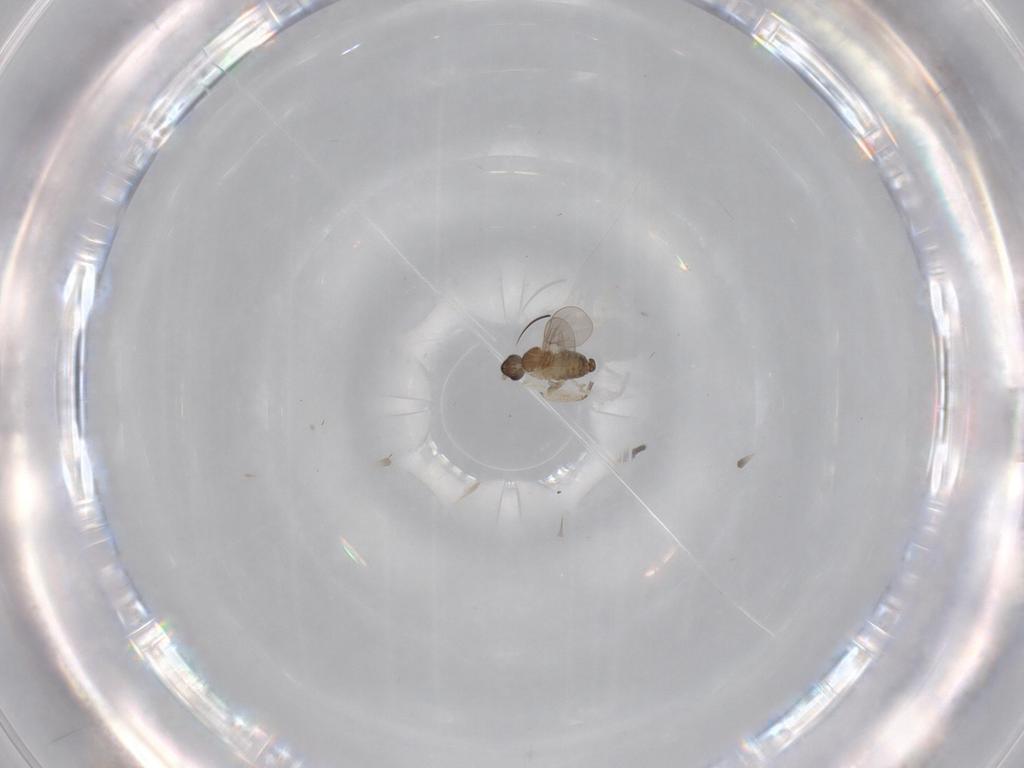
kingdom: Animalia
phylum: Arthropoda
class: Insecta
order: Diptera
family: Sciaridae
